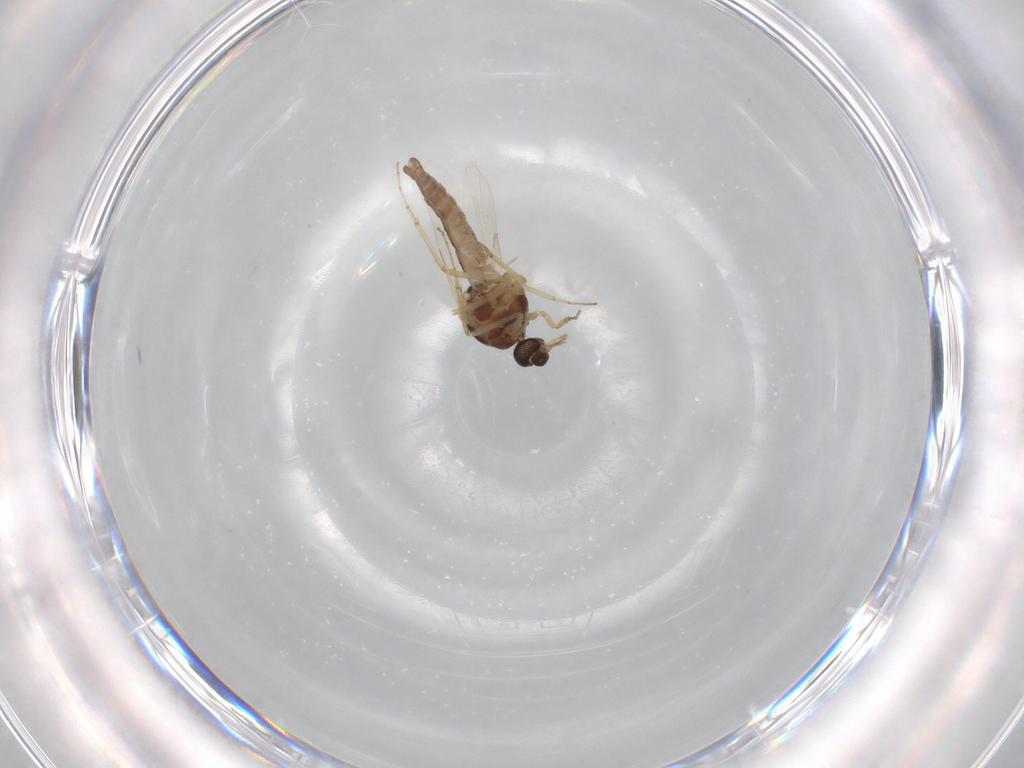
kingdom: Animalia
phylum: Arthropoda
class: Insecta
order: Diptera
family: Ceratopogonidae
